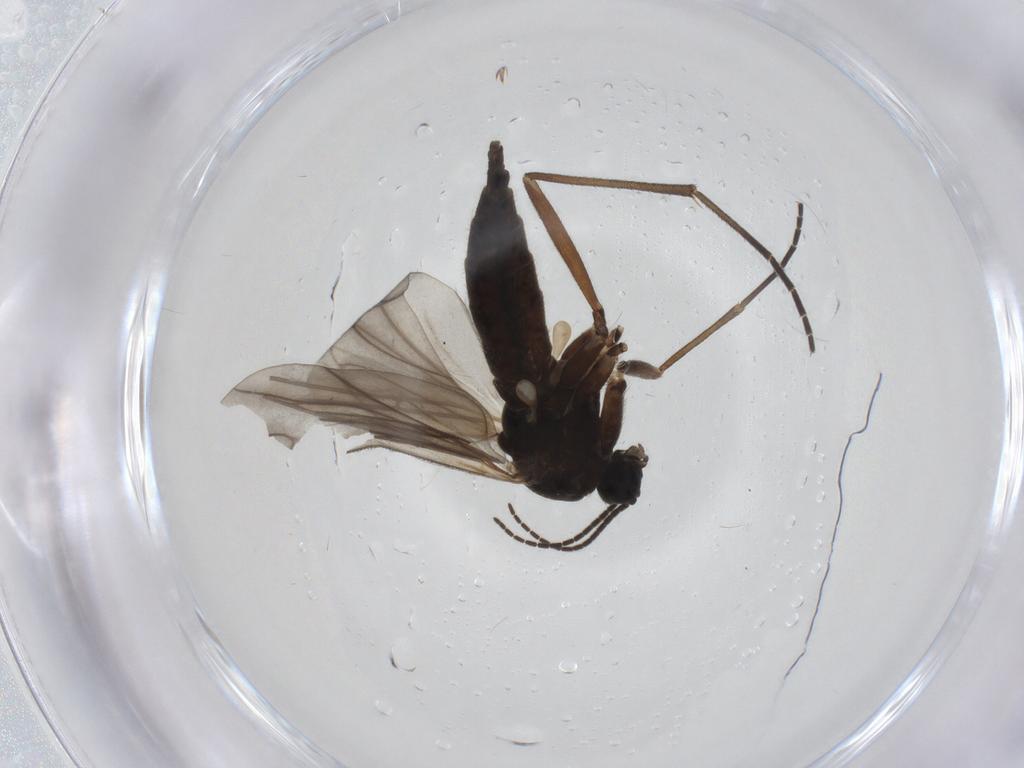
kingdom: Animalia
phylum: Arthropoda
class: Insecta
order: Diptera
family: Sciaridae
